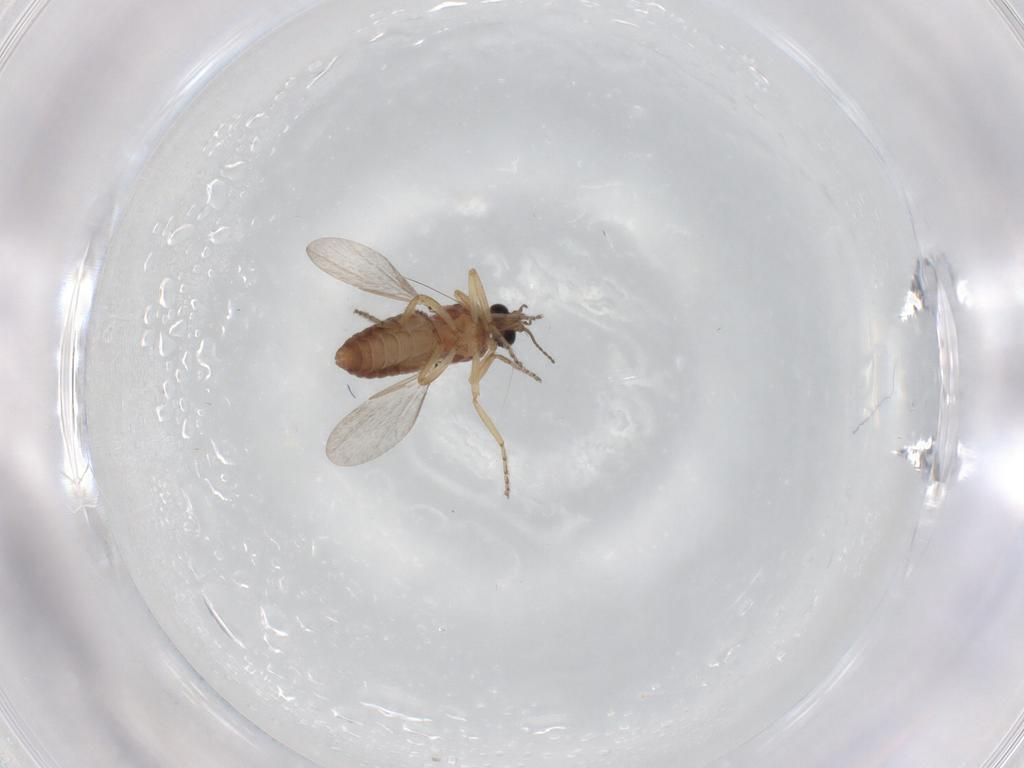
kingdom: Animalia
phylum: Arthropoda
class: Insecta
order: Diptera
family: Ceratopogonidae
